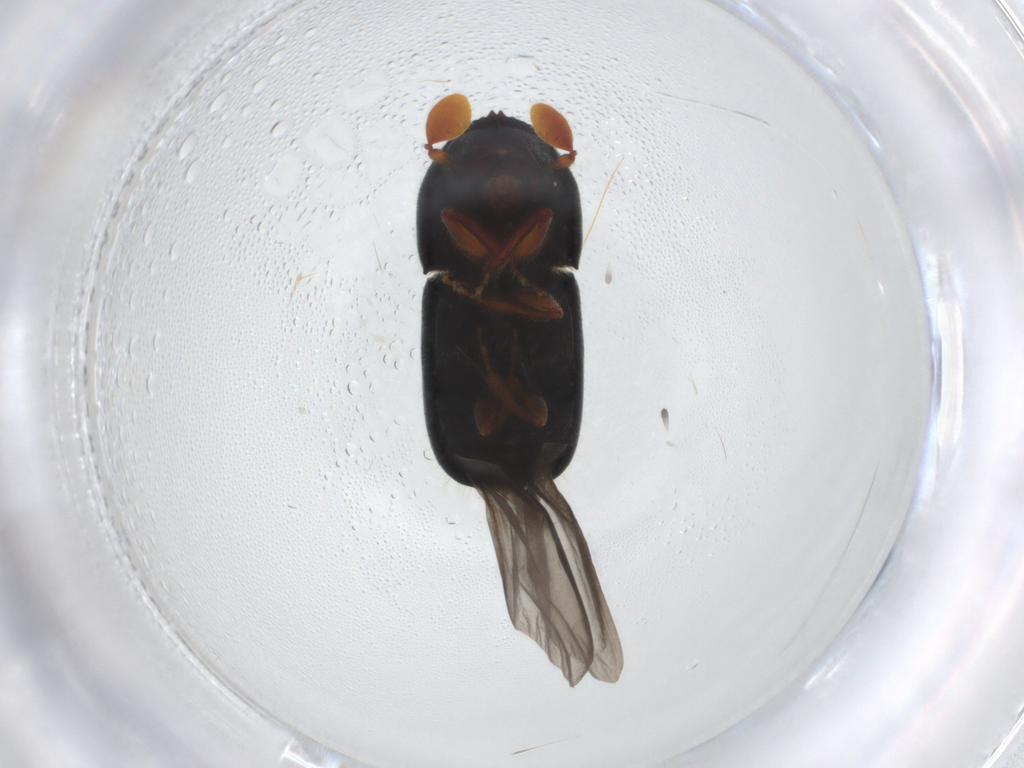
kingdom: Animalia
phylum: Arthropoda
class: Insecta
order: Coleoptera
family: Curculionidae
